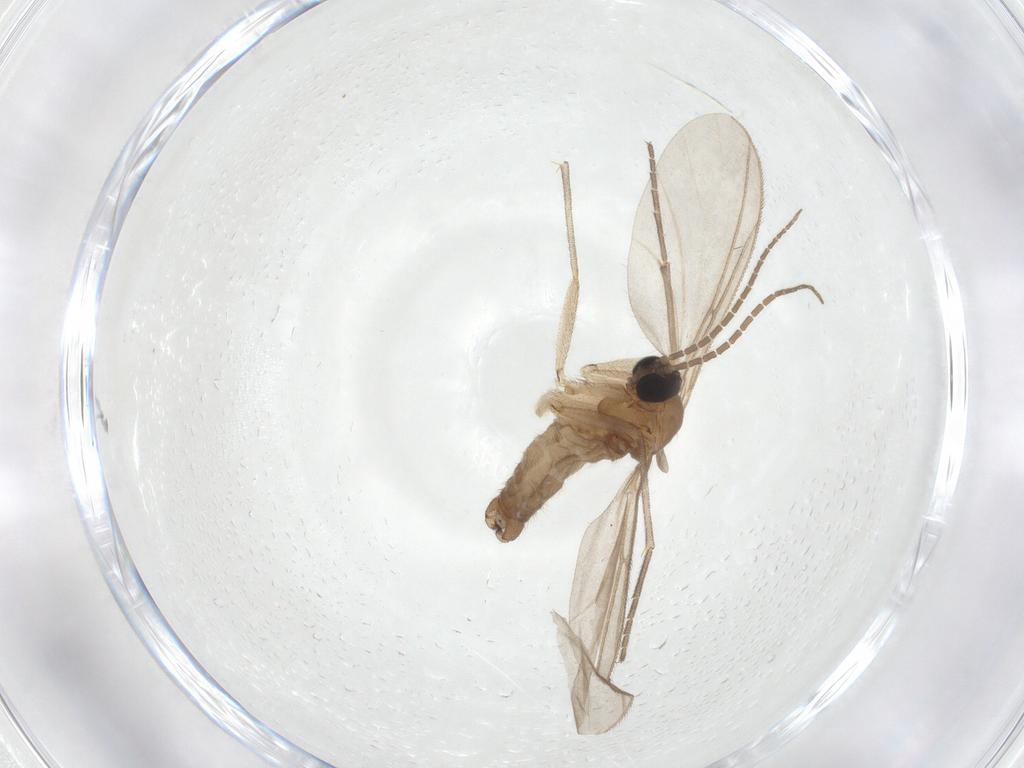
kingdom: Animalia
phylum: Arthropoda
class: Insecta
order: Diptera
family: Sciaridae
